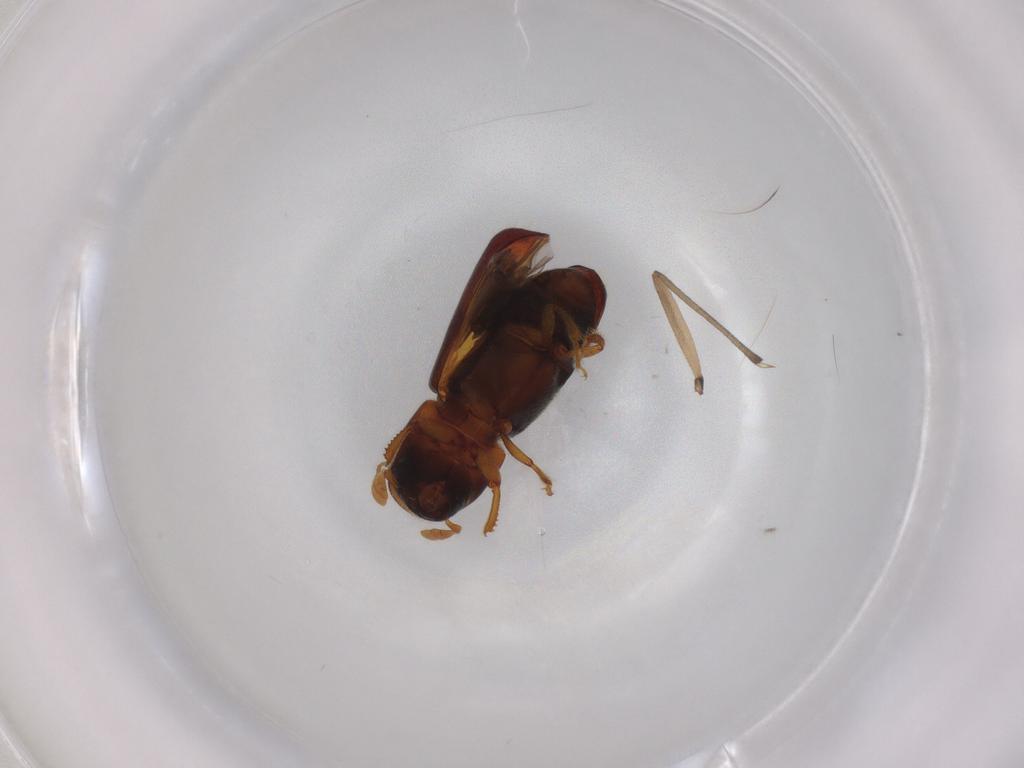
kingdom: Animalia
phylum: Arthropoda
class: Insecta
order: Coleoptera
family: Curculionidae
